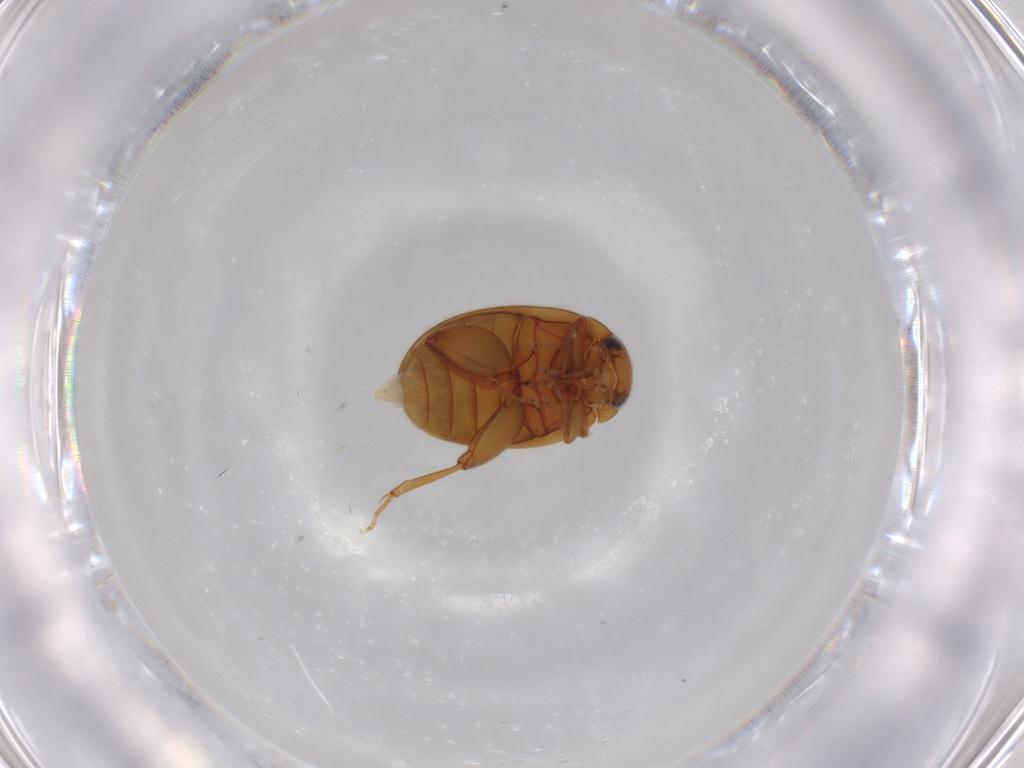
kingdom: Animalia
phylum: Arthropoda
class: Insecta
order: Coleoptera
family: Scirtidae
